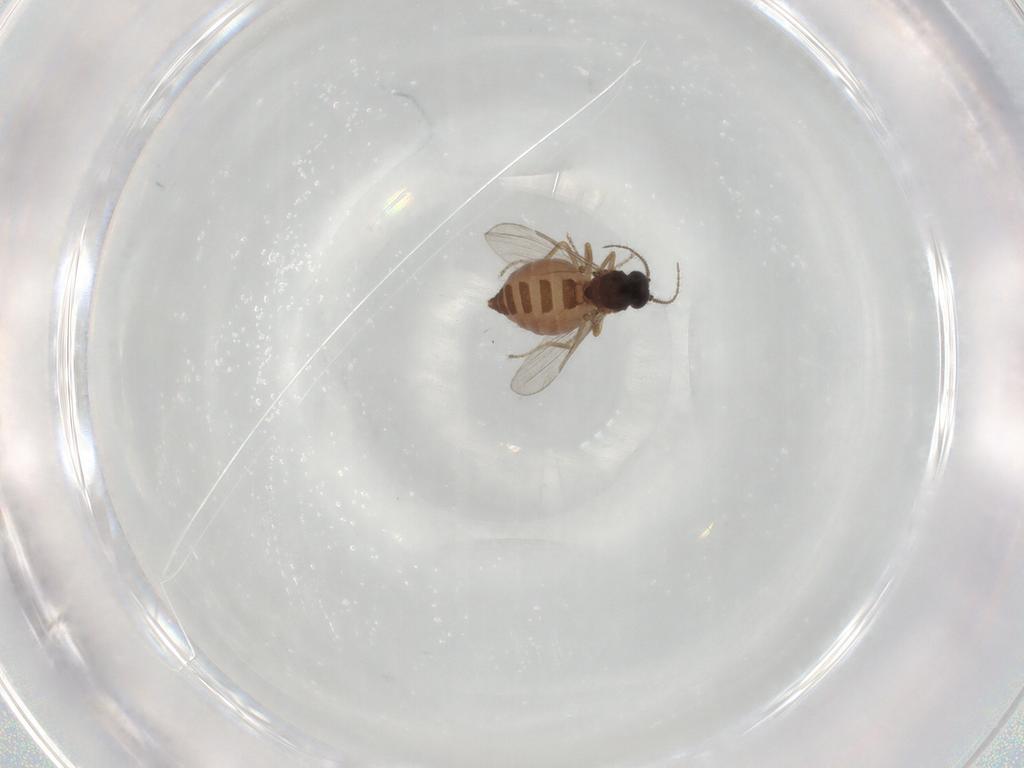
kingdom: Animalia
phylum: Arthropoda
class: Insecta
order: Diptera
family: Ceratopogonidae
